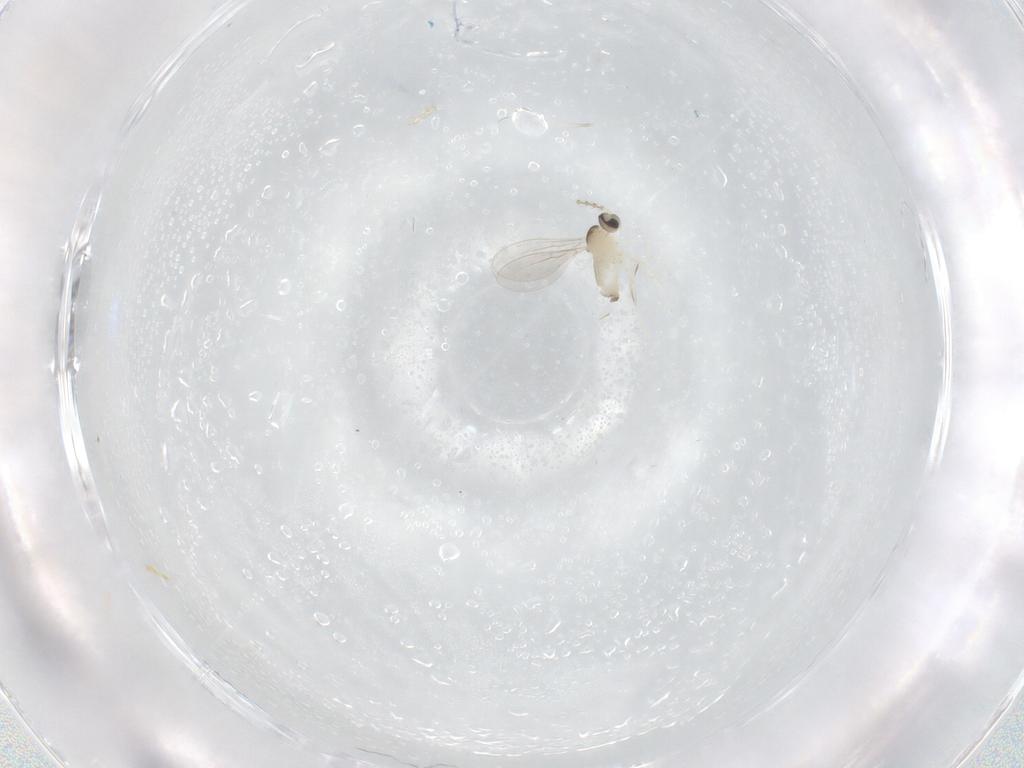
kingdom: Animalia
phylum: Arthropoda
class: Insecta
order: Diptera
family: Cecidomyiidae
